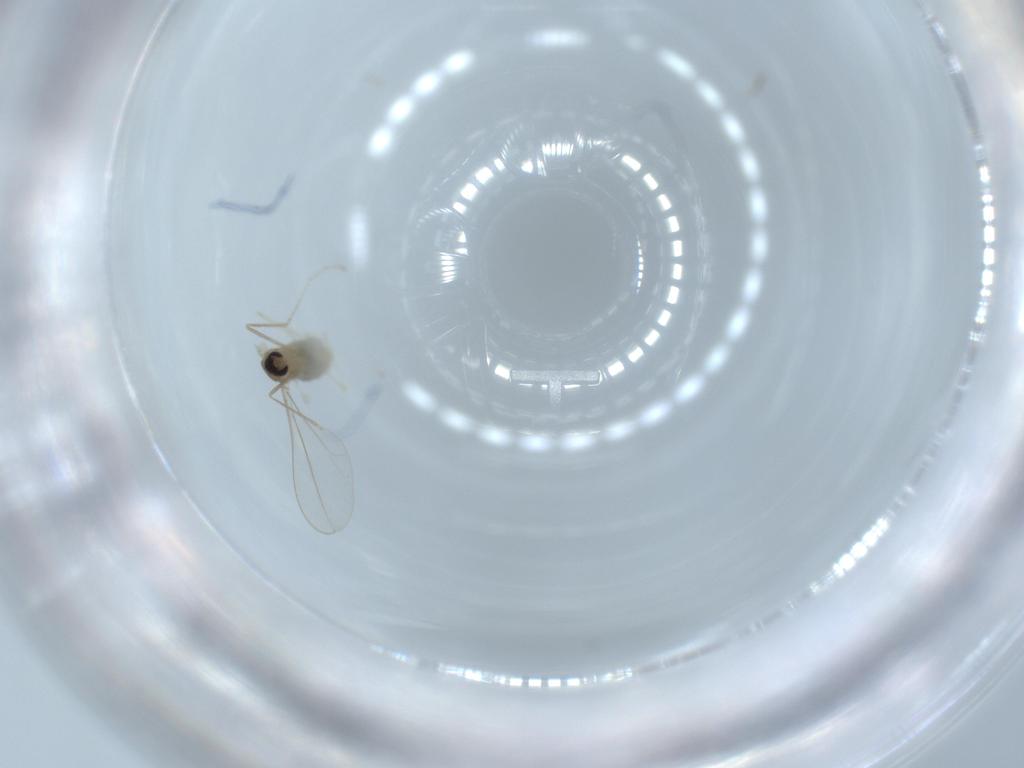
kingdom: Animalia
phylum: Arthropoda
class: Insecta
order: Diptera
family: Cecidomyiidae
